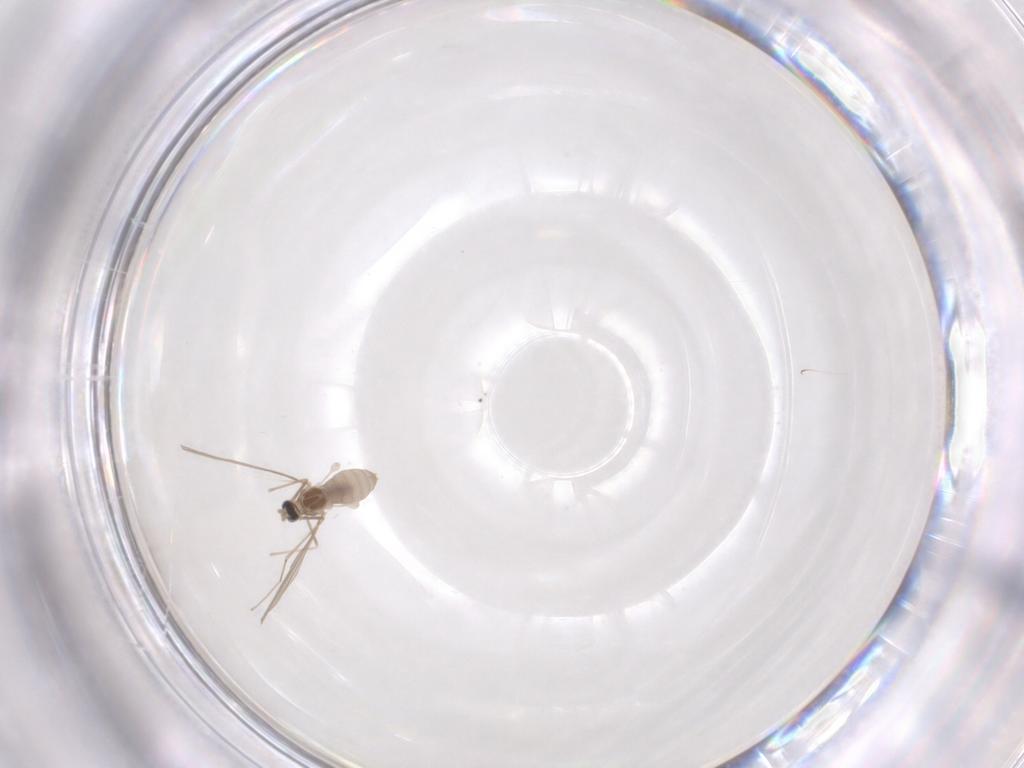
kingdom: Animalia
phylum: Arthropoda
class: Insecta
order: Diptera
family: Cecidomyiidae
